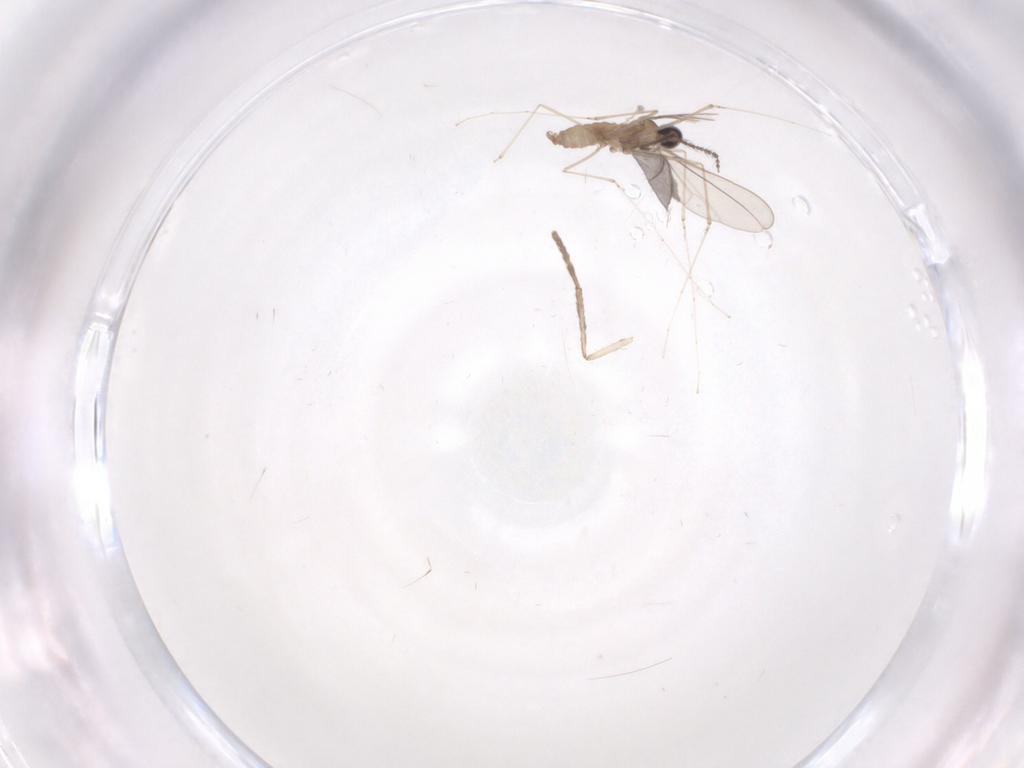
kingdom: Animalia
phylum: Arthropoda
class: Insecta
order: Diptera
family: Psychodidae
